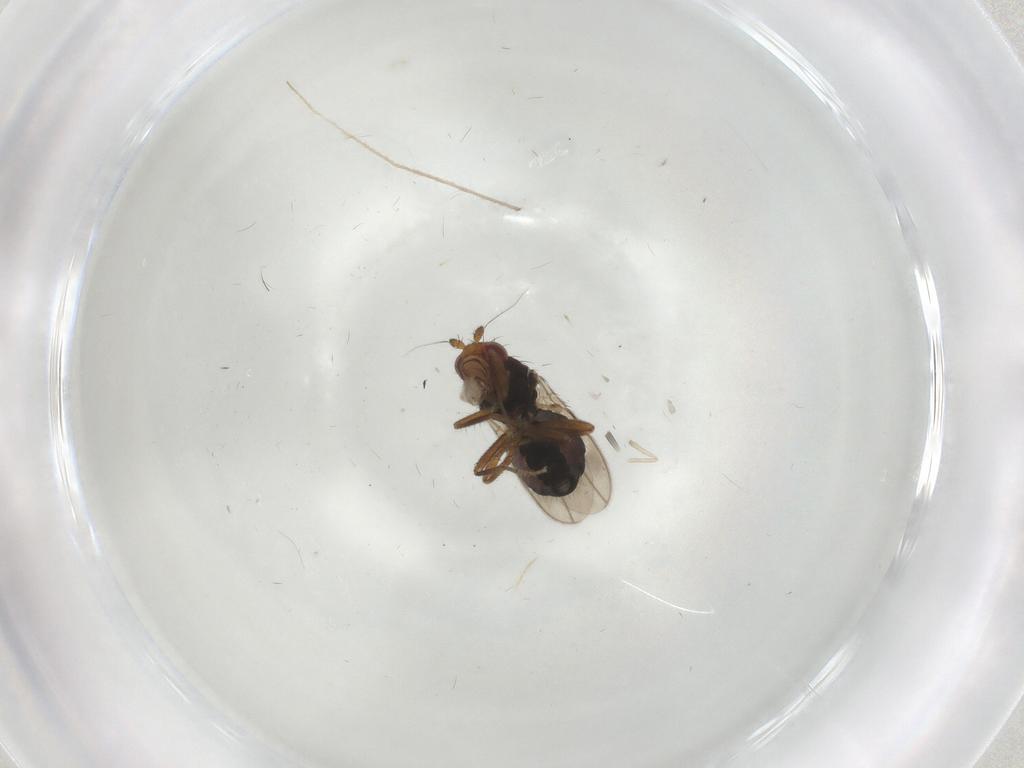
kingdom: Animalia
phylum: Arthropoda
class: Insecta
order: Diptera
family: Sphaeroceridae
